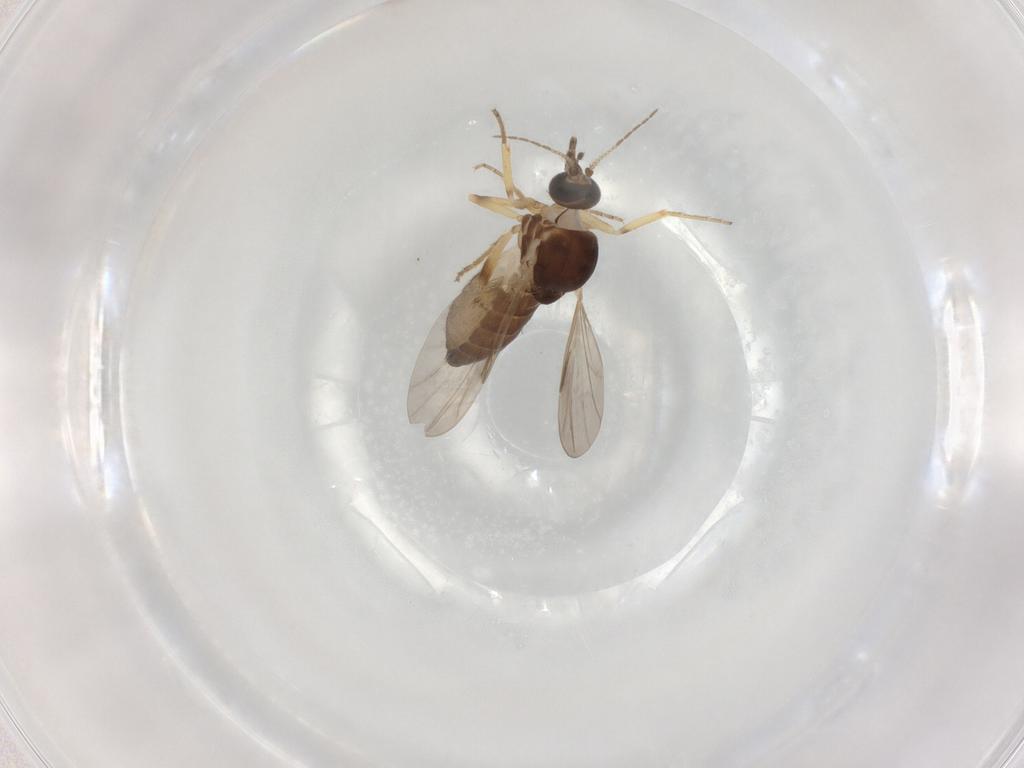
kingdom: Animalia
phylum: Arthropoda
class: Insecta
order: Diptera
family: Ceratopogonidae
